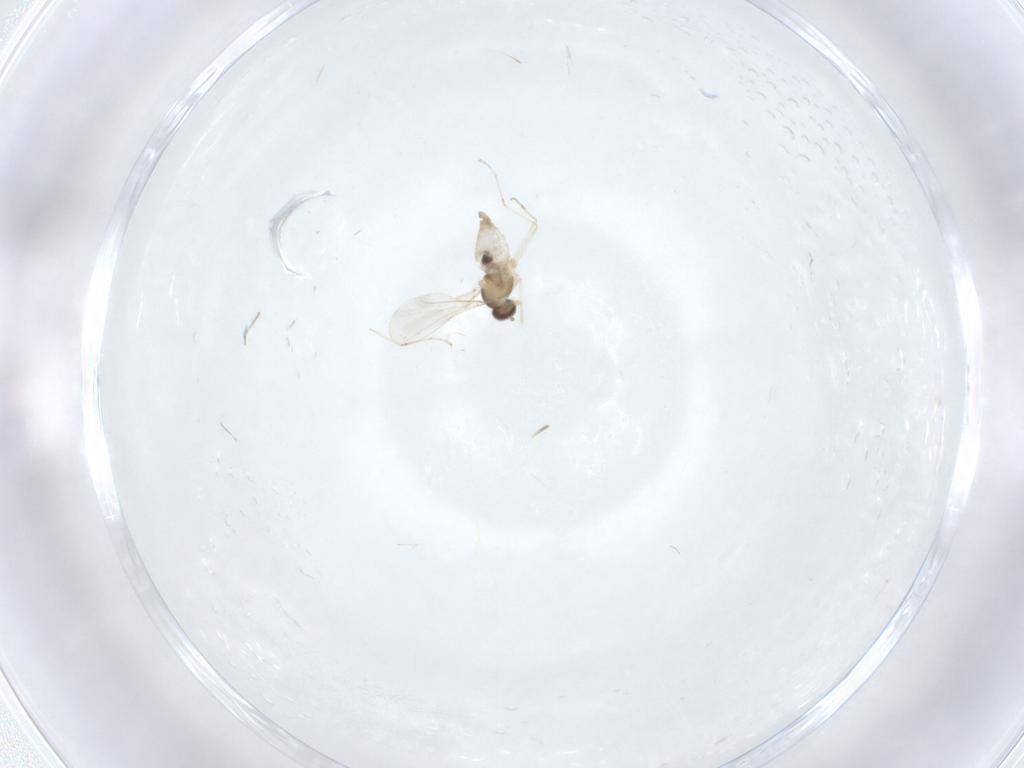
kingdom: Animalia
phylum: Arthropoda
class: Insecta
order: Diptera
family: Cecidomyiidae
